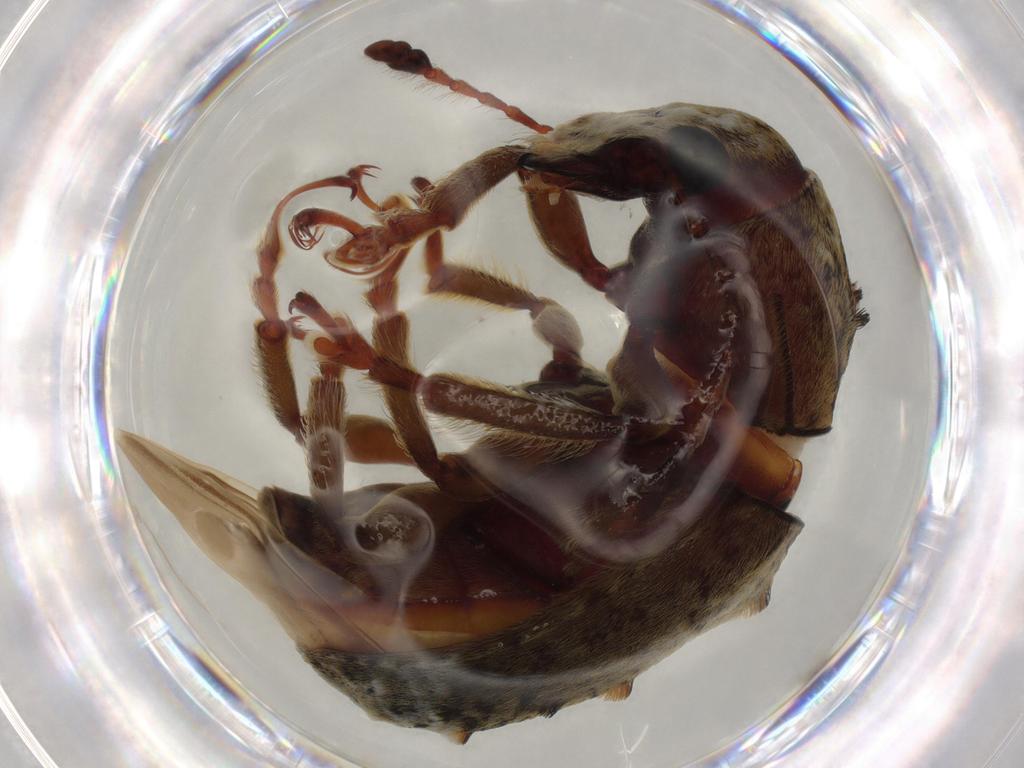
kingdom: Animalia
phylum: Arthropoda
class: Insecta
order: Coleoptera
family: Anthribidae
